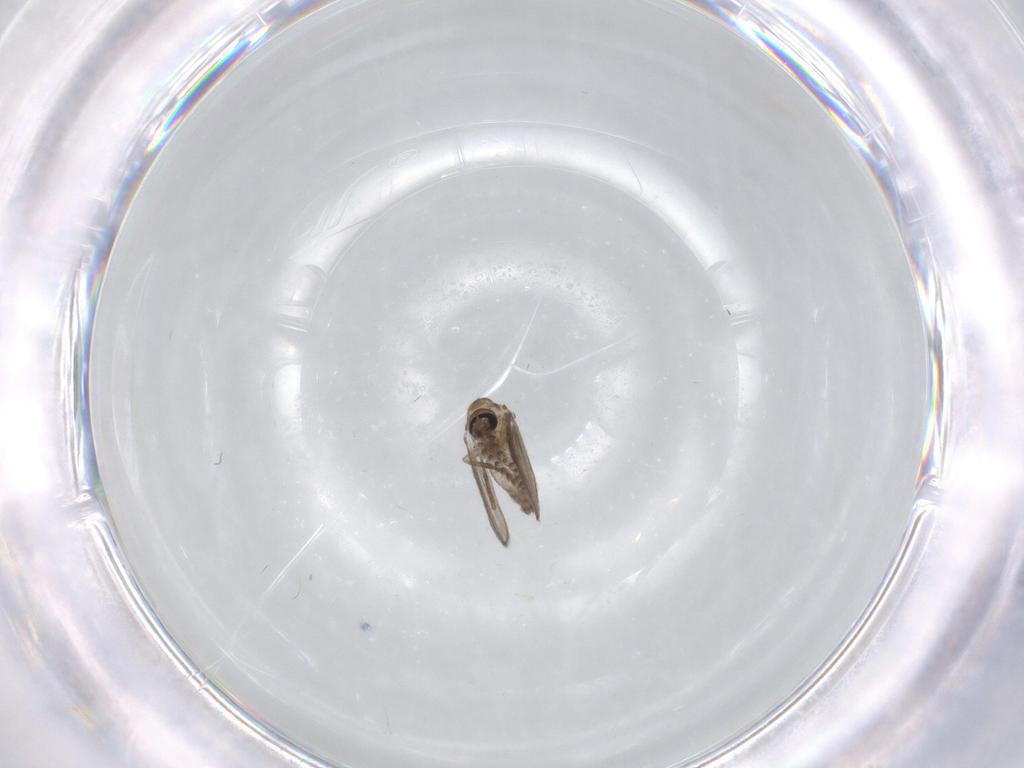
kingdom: Animalia
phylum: Arthropoda
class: Insecta
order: Diptera
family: Psychodidae
